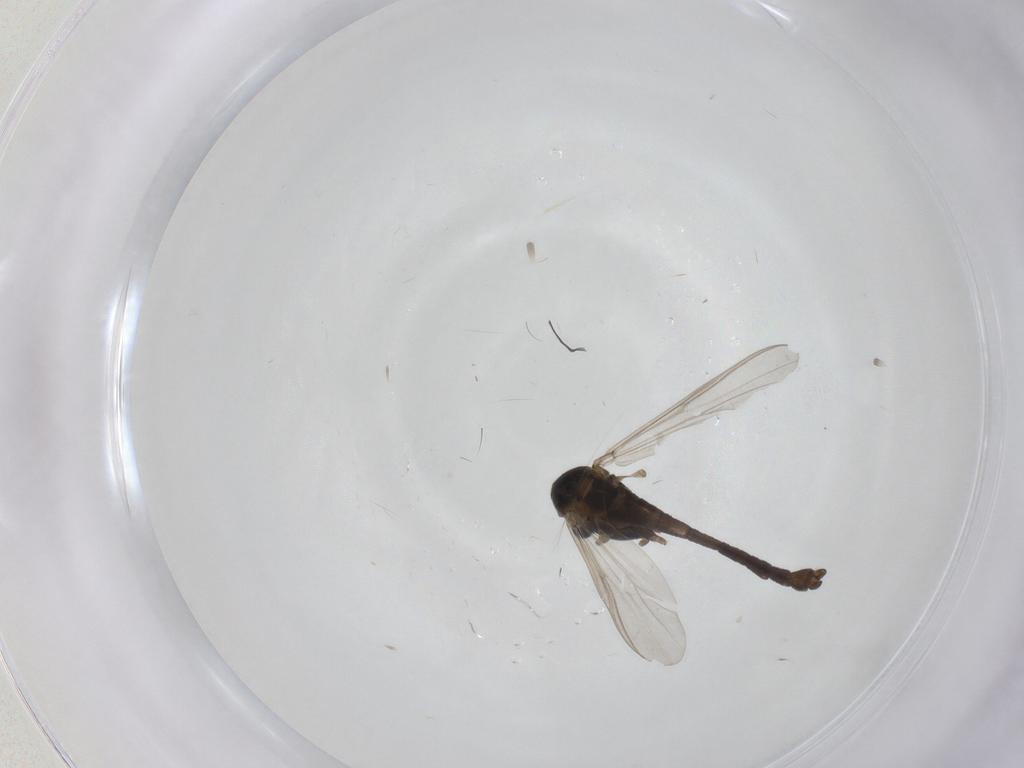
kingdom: Animalia
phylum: Arthropoda
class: Insecta
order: Diptera
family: Chironomidae
